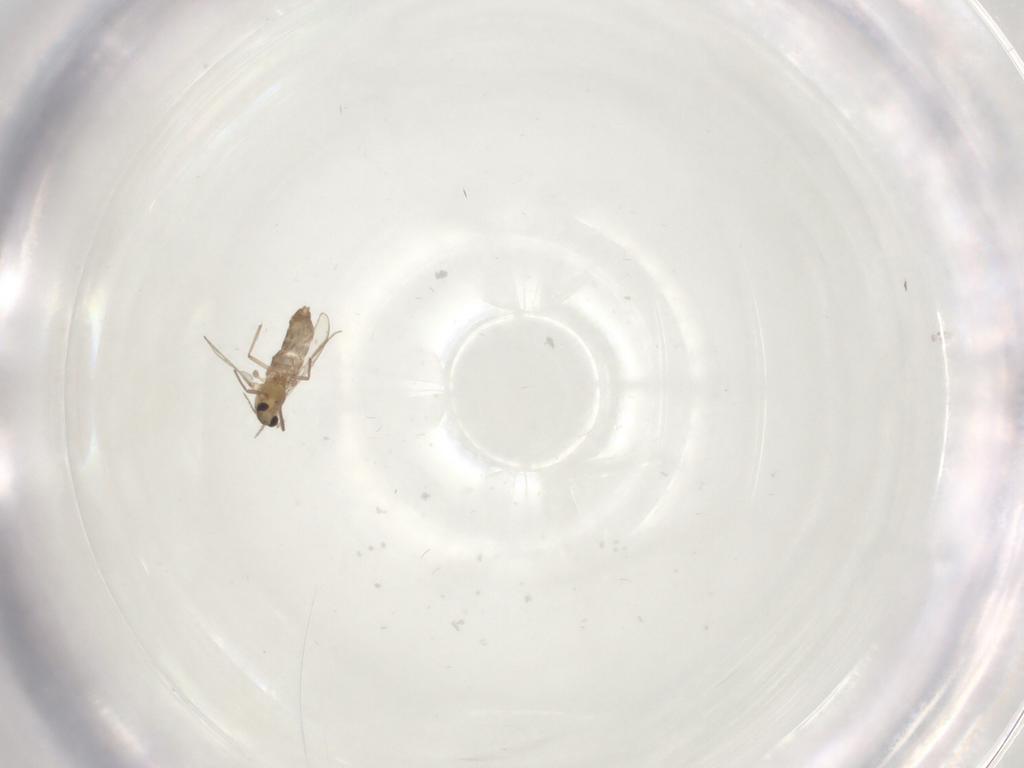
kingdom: Animalia
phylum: Arthropoda
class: Insecta
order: Diptera
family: Chironomidae
